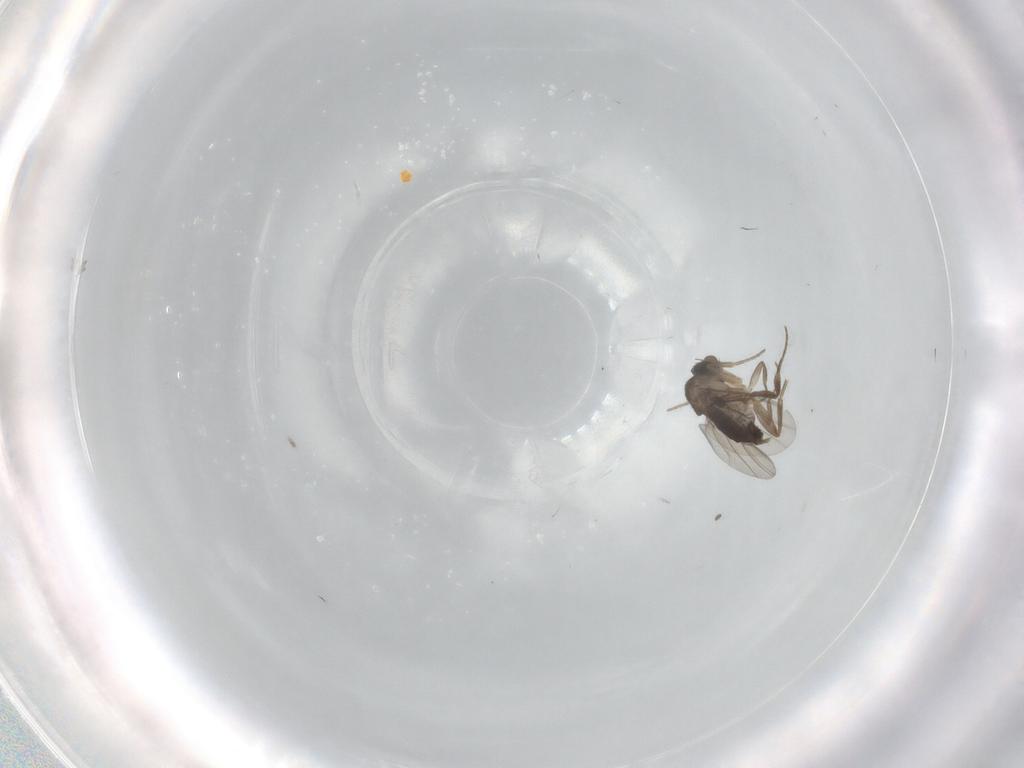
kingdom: Animalia
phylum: Arthropoda
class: Insecta
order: Diptera
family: Phoridae
